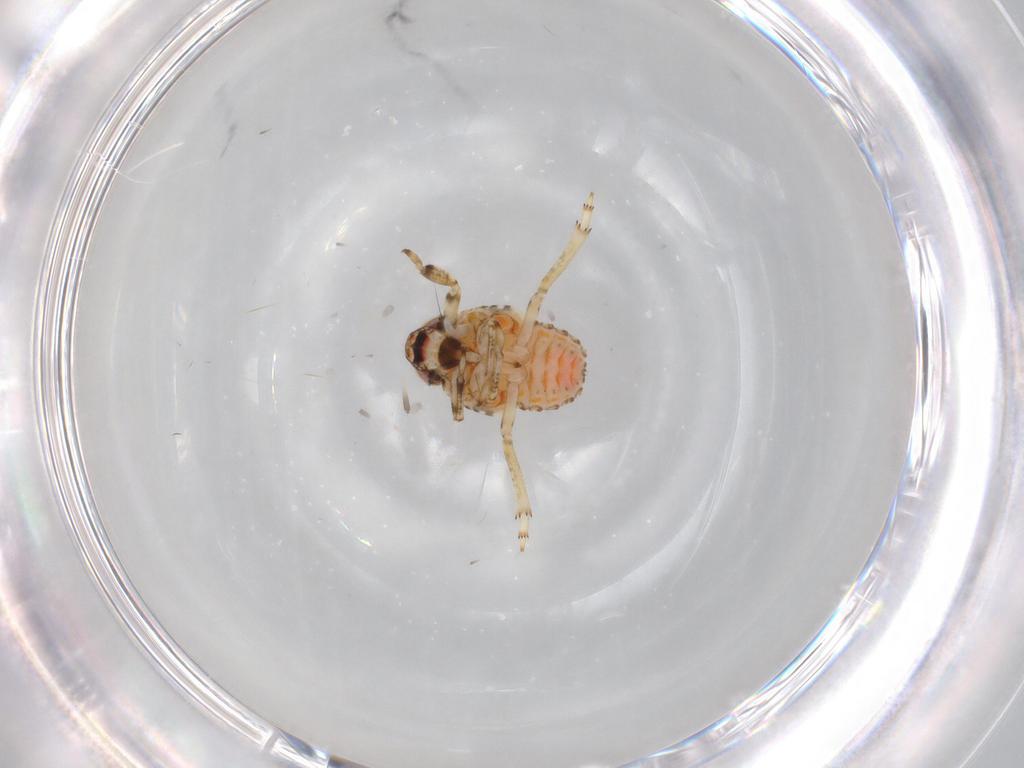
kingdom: Animalia
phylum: Arthropoda
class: Insecta
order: Hemiptera
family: Issidae
